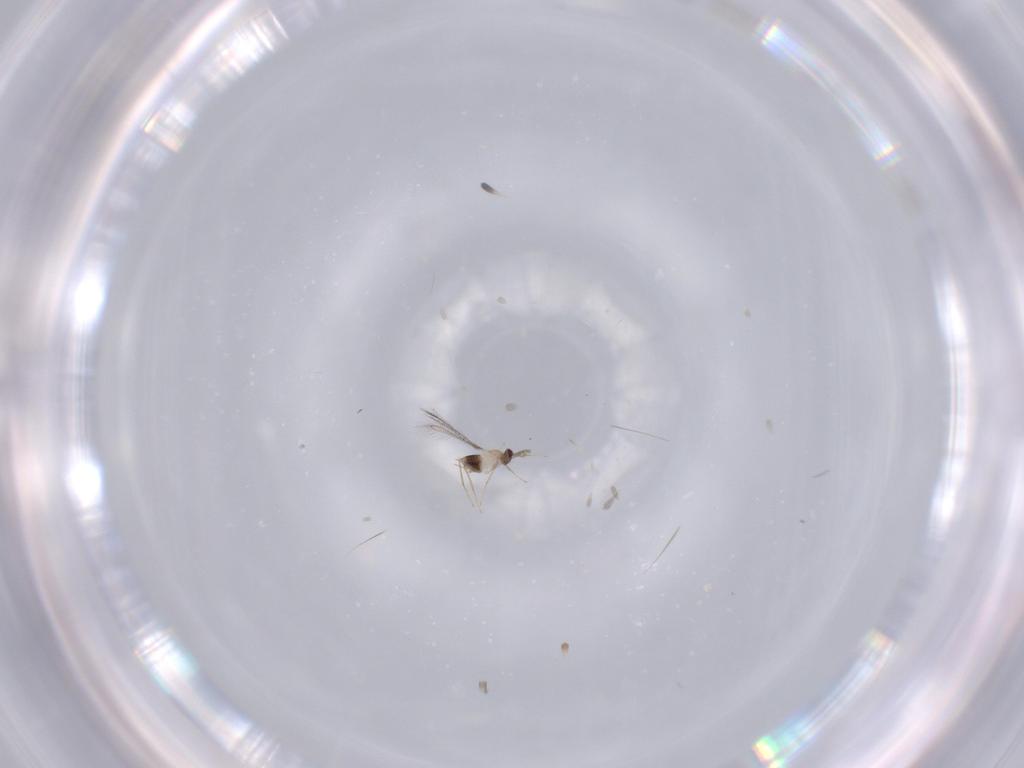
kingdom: Animalia
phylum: Arthropoda
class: Insecta
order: Hymenoptera
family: Mymaridae
